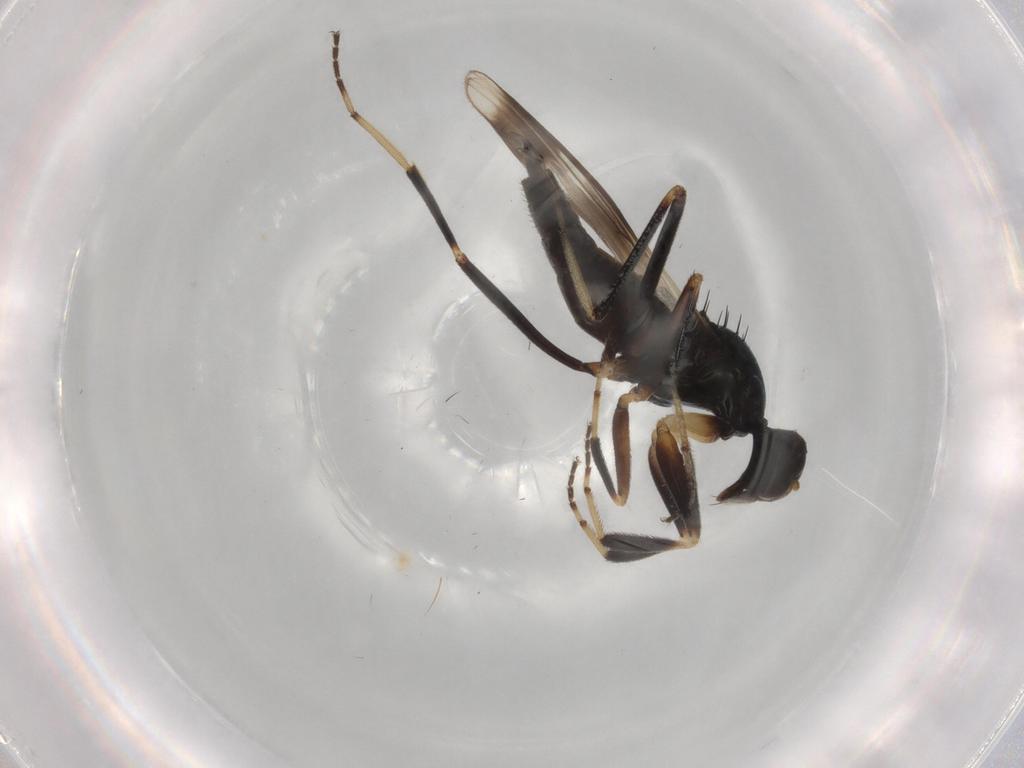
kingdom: Animalia
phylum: Arthropoda
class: Insecta
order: Diptera
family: Hybotidae
